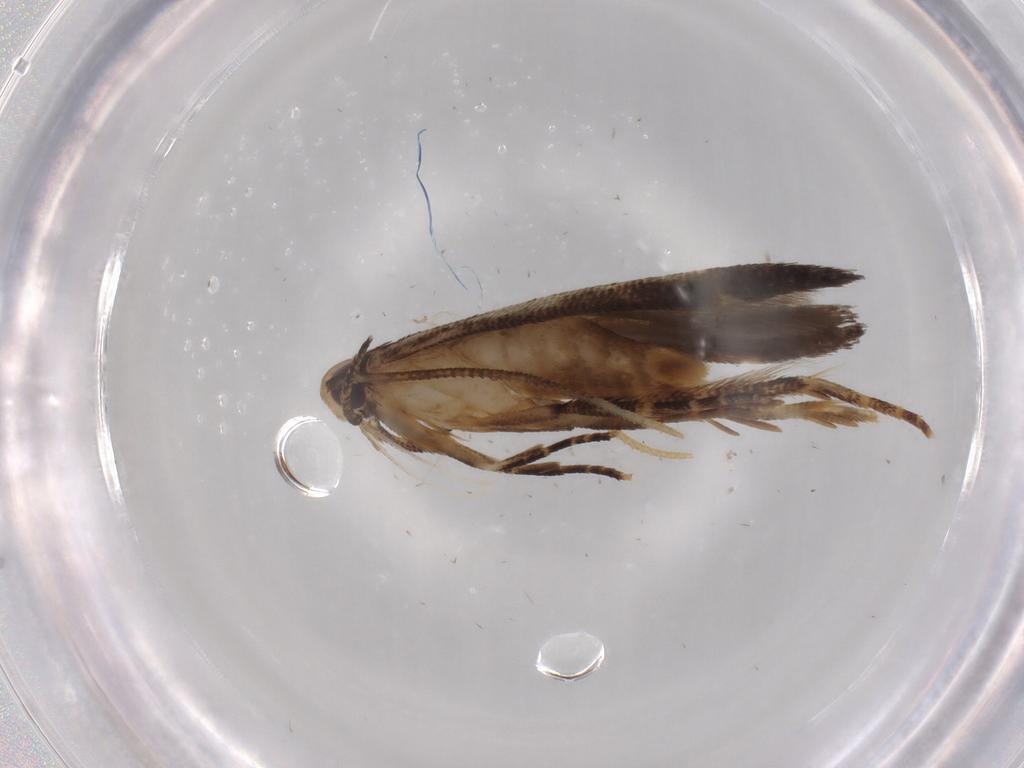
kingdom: Animalia
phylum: Arthropoda
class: Insecta
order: Lepidoptera
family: Cosmopterigidae
